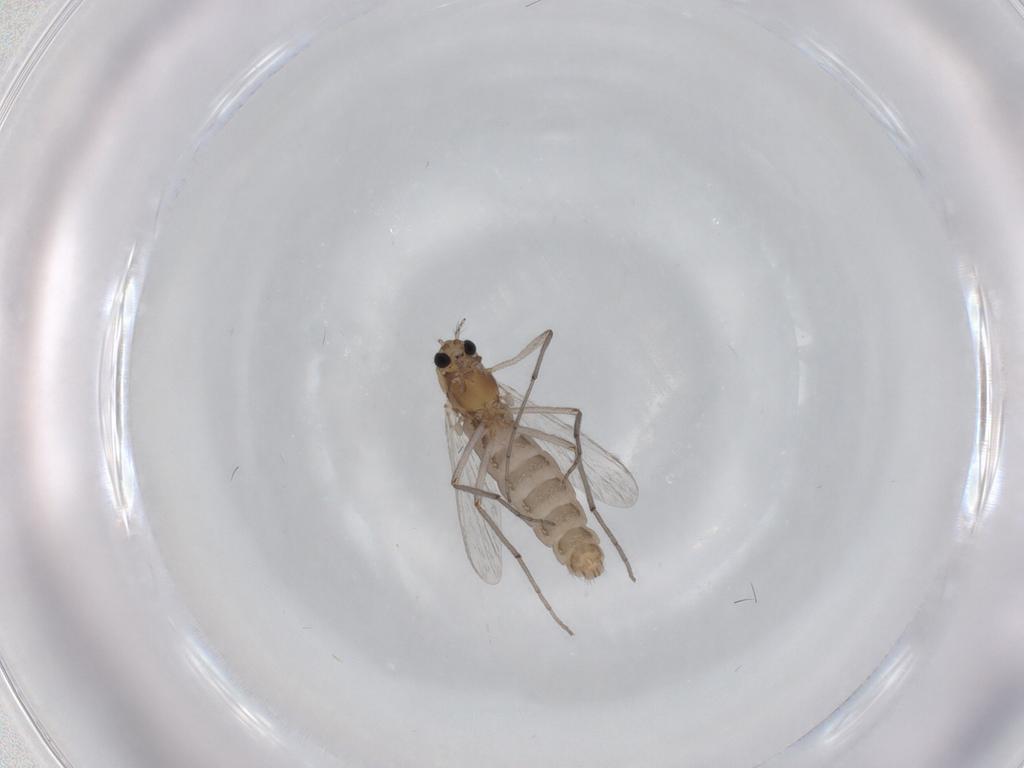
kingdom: Animalia
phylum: Arthropoda
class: Insecta
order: Diptera
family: Chironomidae
